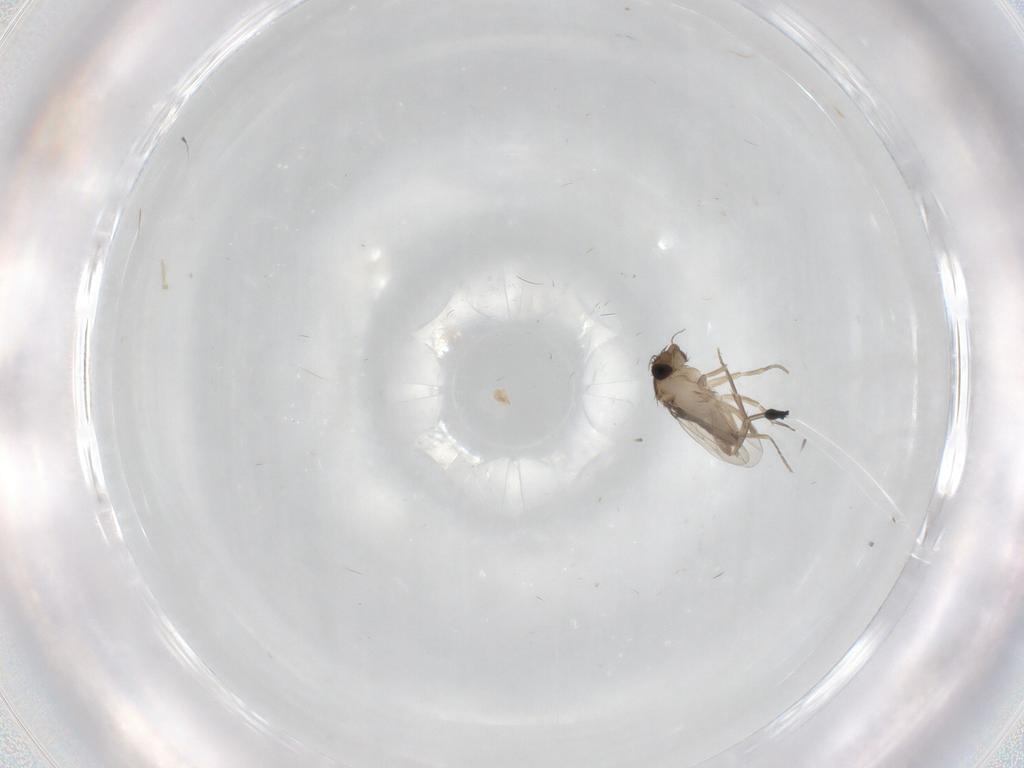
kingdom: Animalia
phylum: Arthropoda
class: Insecta
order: Diptera
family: Phoridae
